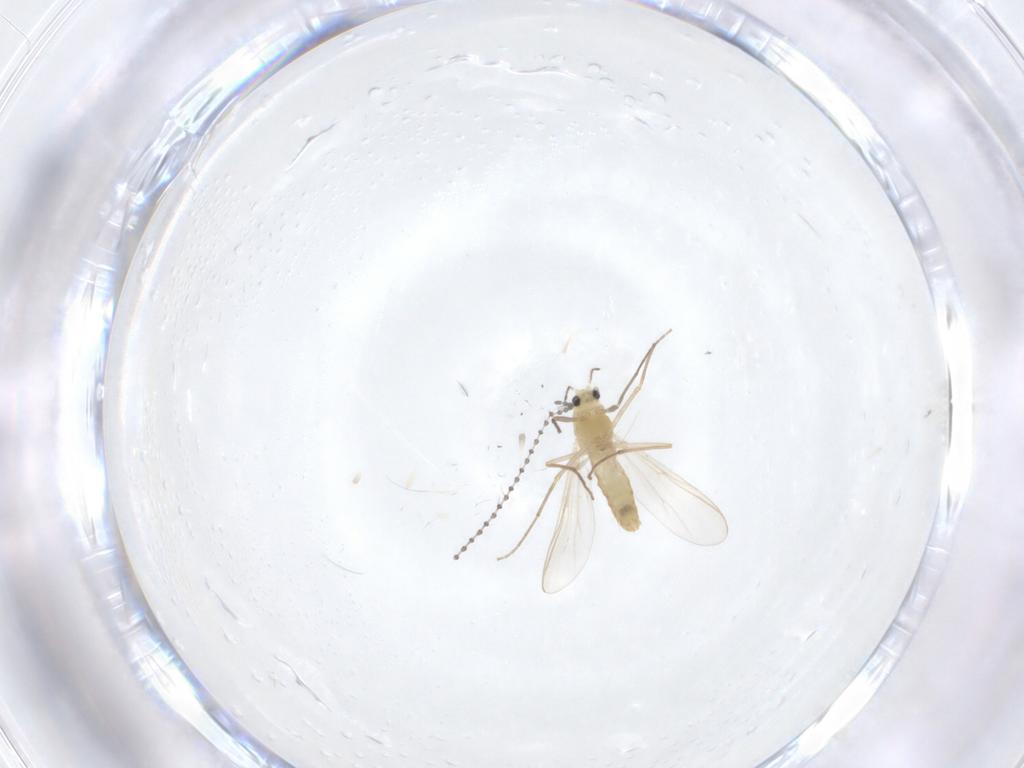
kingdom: Animalia
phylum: Arthropoda
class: Insecta
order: Diptera
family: Chironomidae
